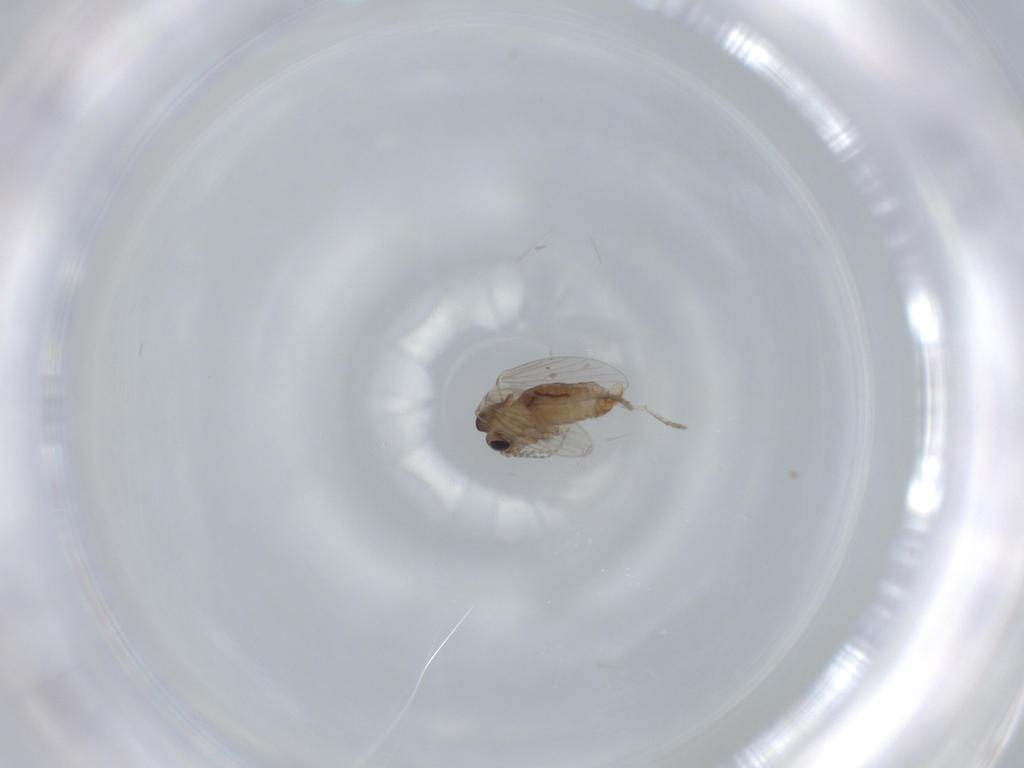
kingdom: Animalia
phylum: Arthropoda
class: Insecta
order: Diptera
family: Psychodidae
